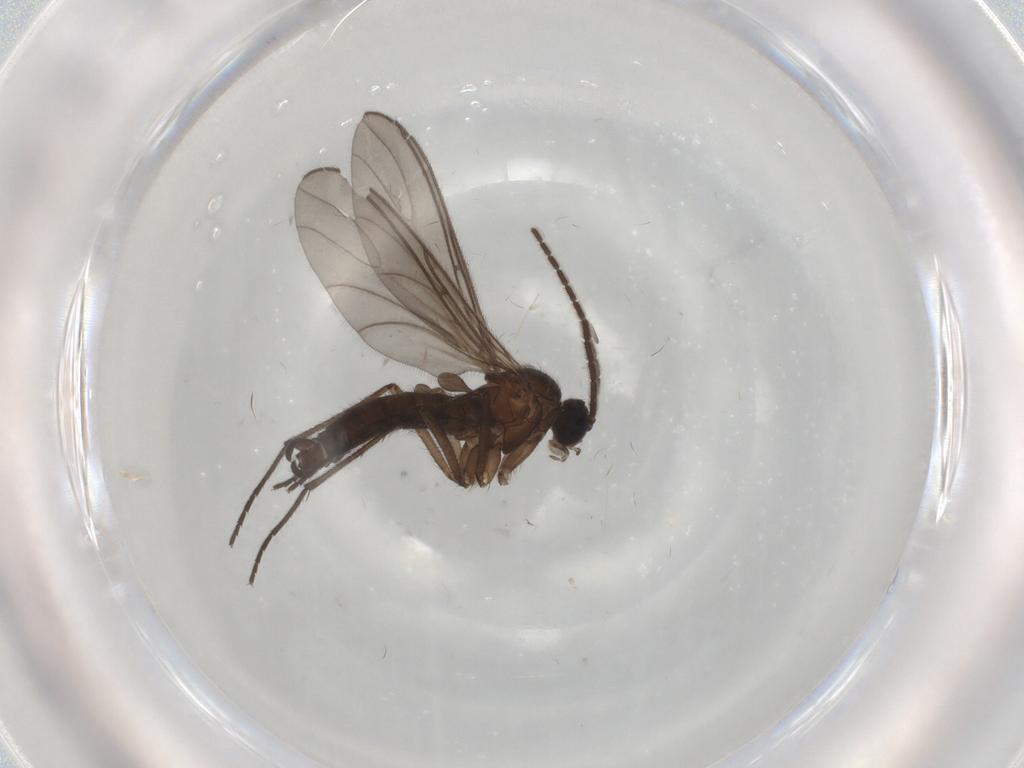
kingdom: Animalia
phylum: Arthropoda
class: Insecta
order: Diptera
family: Sciaridae
